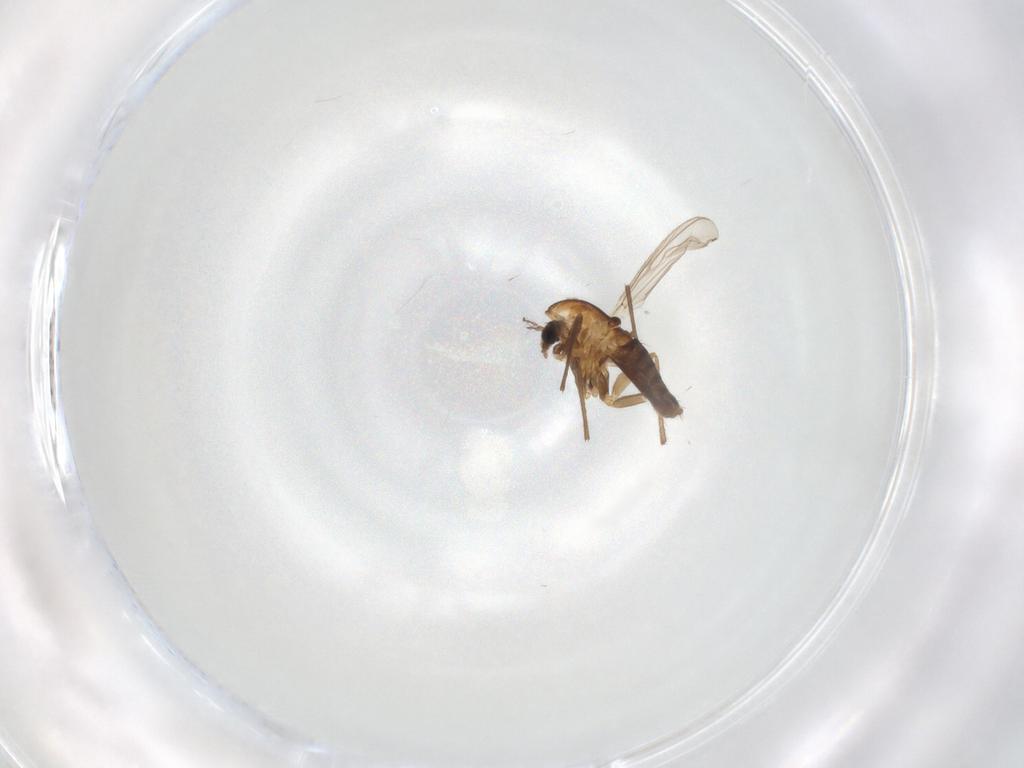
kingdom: Animalia
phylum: Arthropoda
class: Insecta
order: Diptera
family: Chironomidae
